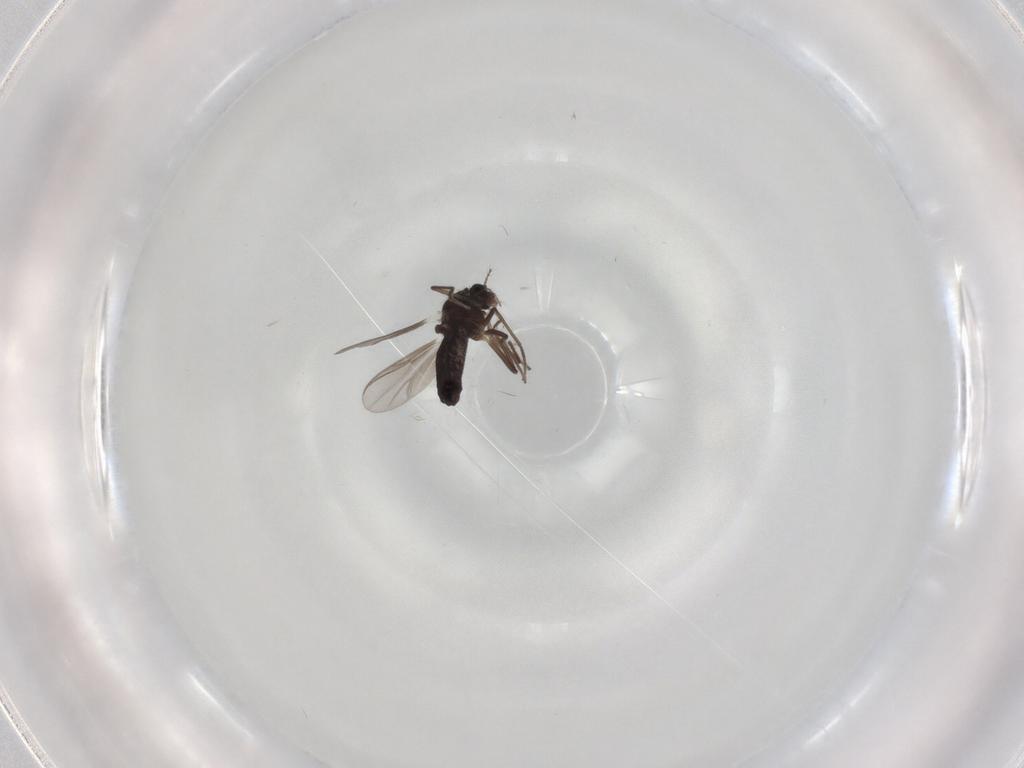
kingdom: Animalia
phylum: Arthropoda
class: Insecta
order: Diptera
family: Chironomidae
